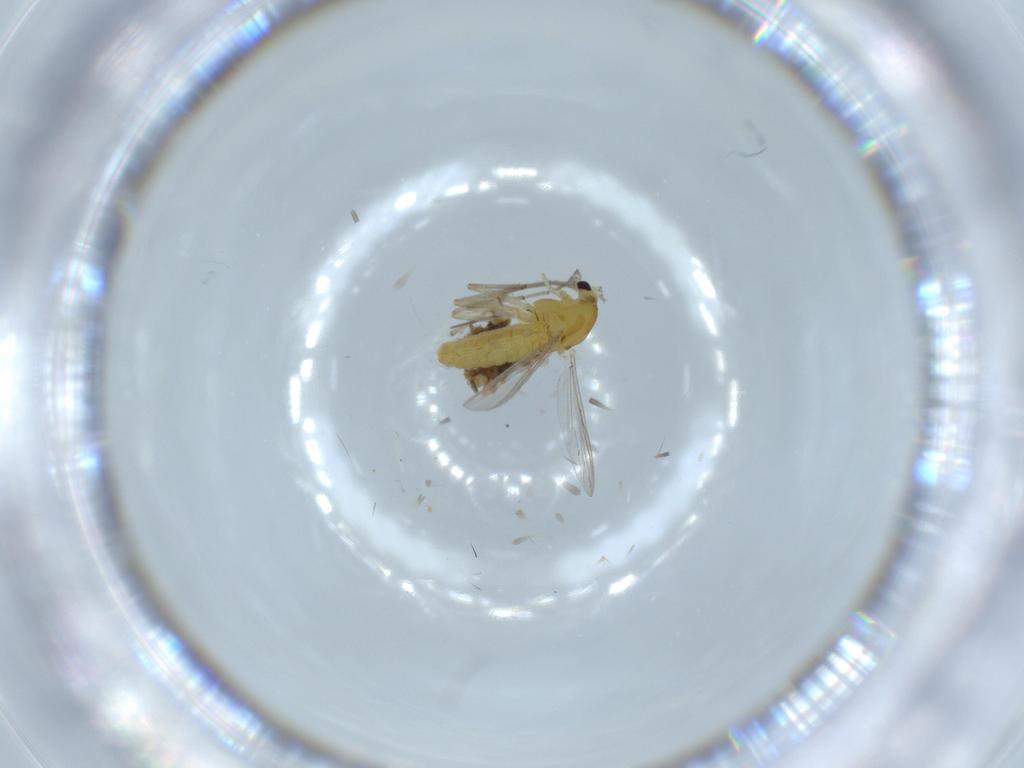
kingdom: Animalia
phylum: Arthropoda
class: Insecta
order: Diptera
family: Chironomidae
